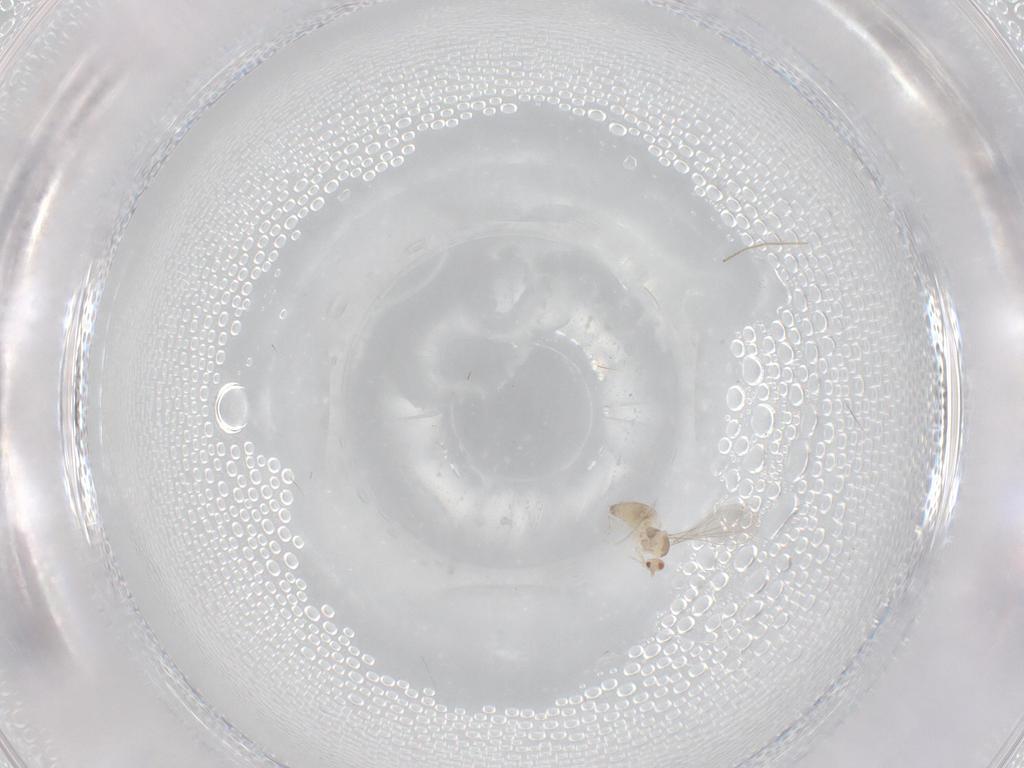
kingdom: Animalia
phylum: Arthropoda
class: Insecta
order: Diptera
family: Cecidomyiidae
